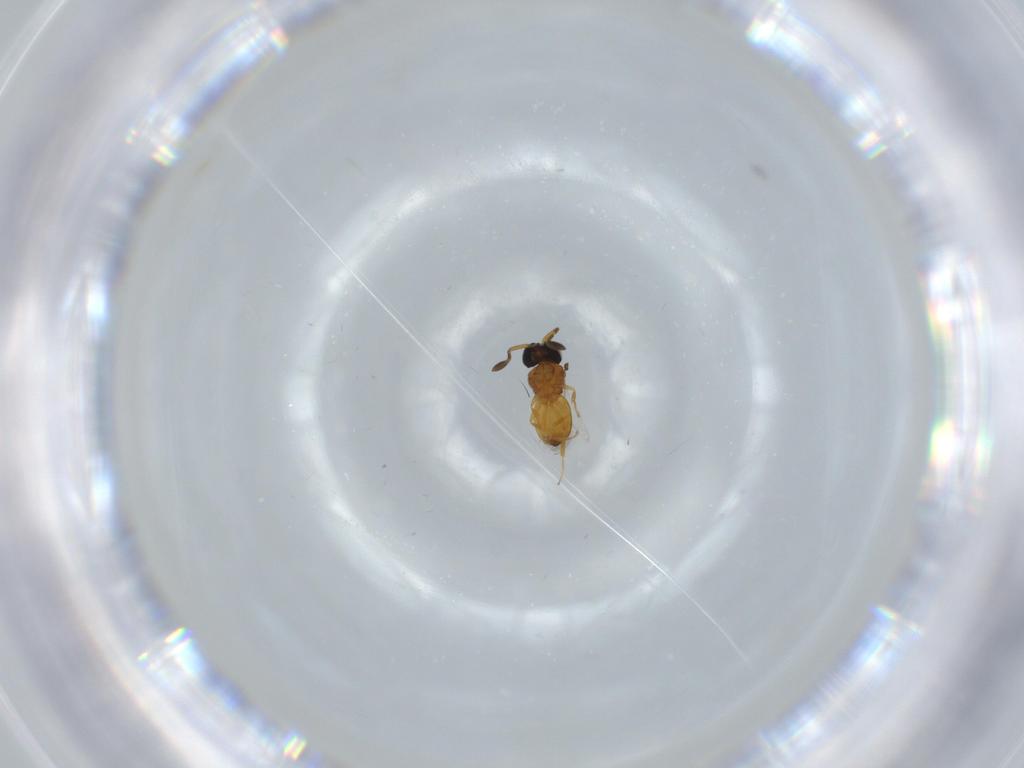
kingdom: Animalia
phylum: Arthropoda
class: Insecta
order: Hymenoptera
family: Scelionidae
